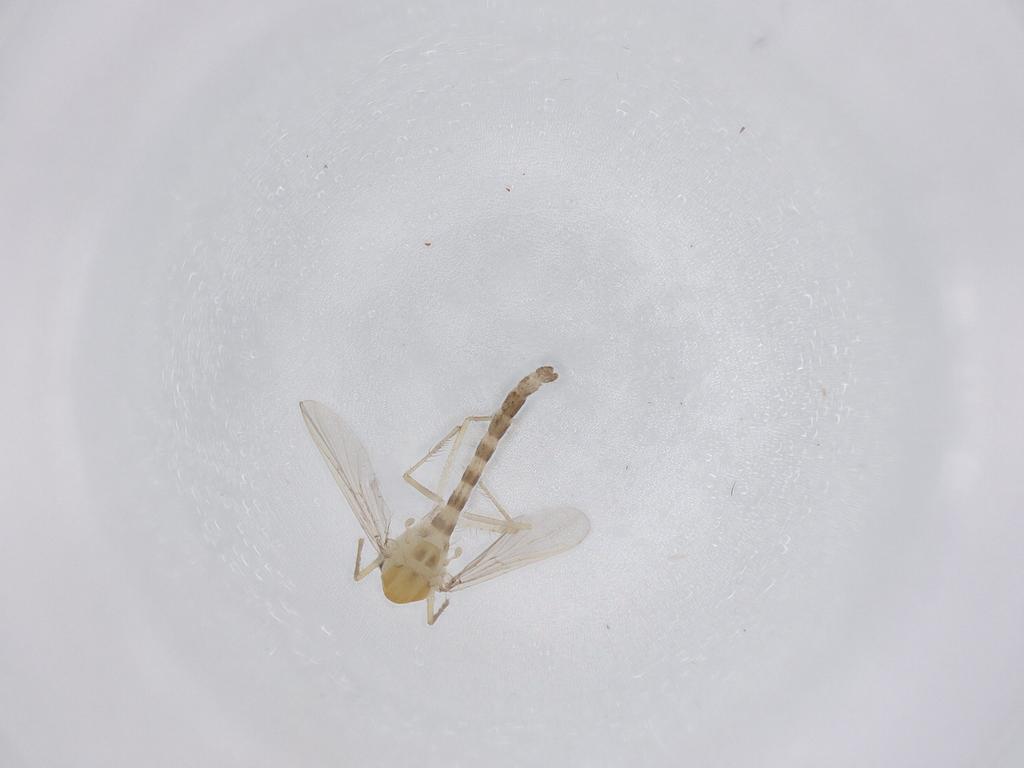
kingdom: Animalia
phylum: Arthropoda
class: Insecta
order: Diptera
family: Chironomidae
